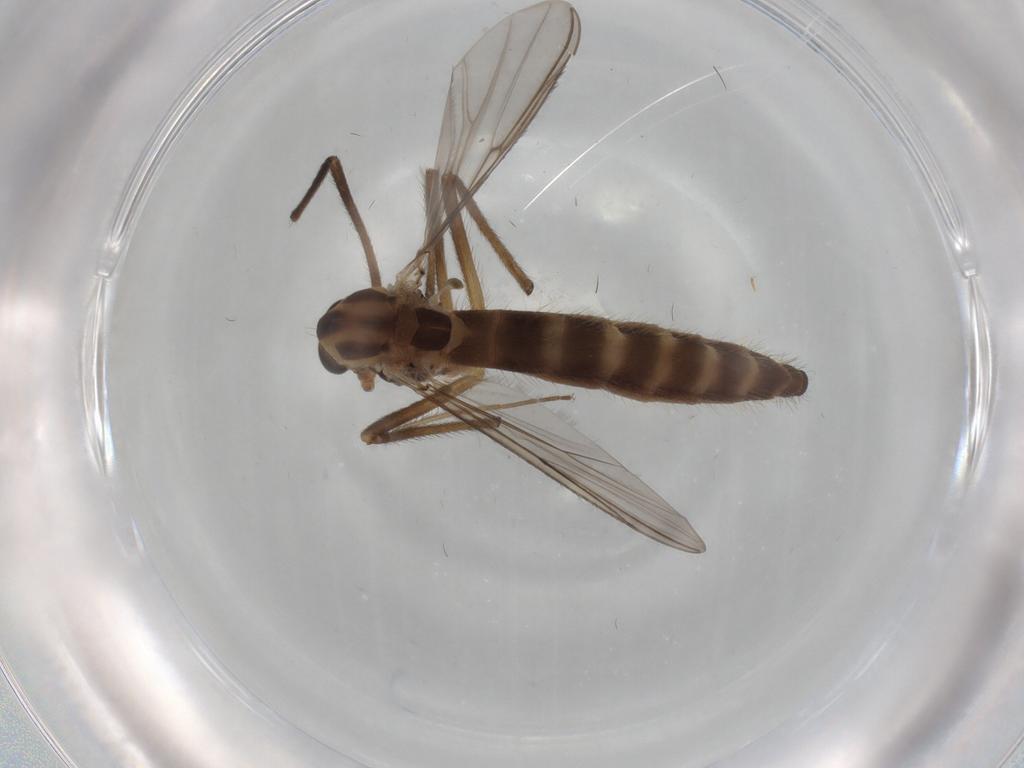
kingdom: Animalia
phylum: Arthropoda
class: Insecta
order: Diptera
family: Chironomidae
